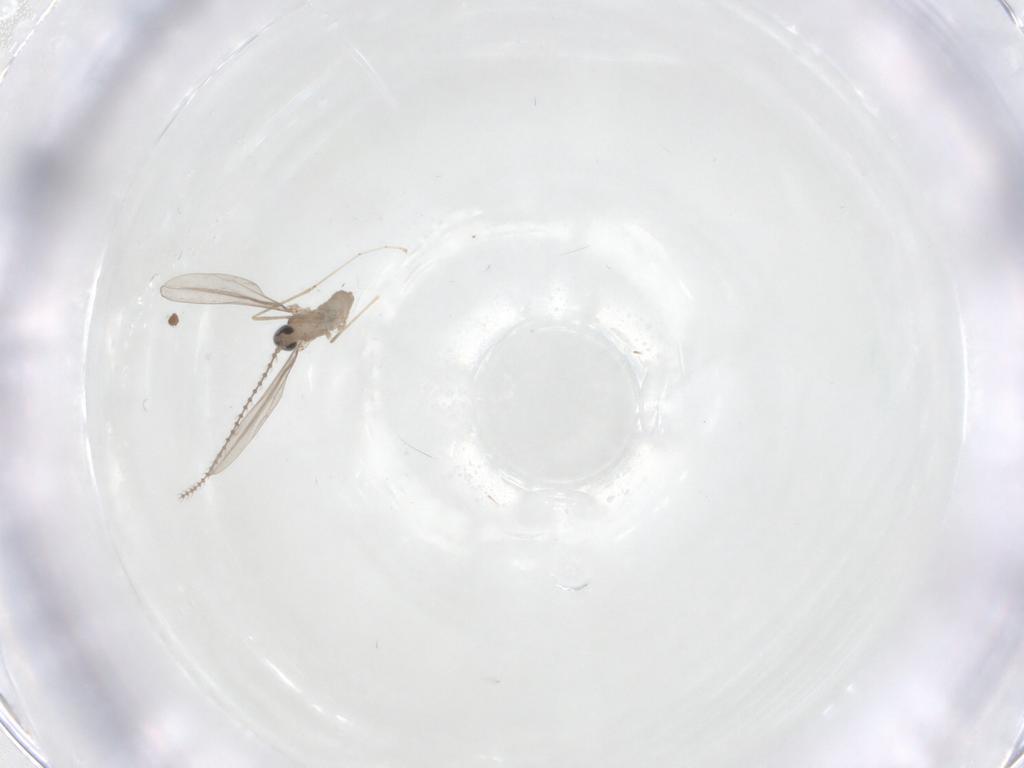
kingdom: Animalia
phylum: Arthropoda
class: Insecta
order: Diptera
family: Cecidomyiidae
